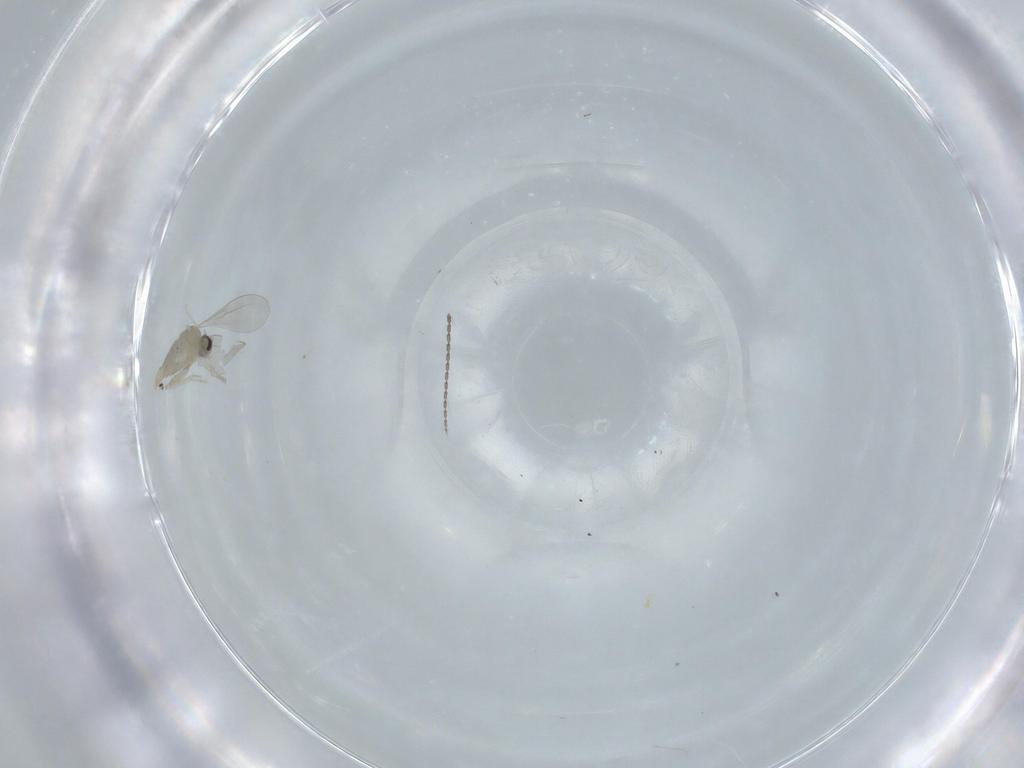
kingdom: Animalia
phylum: Arthropoda
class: Insecta
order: Diptera
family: Cecidomyiidae
